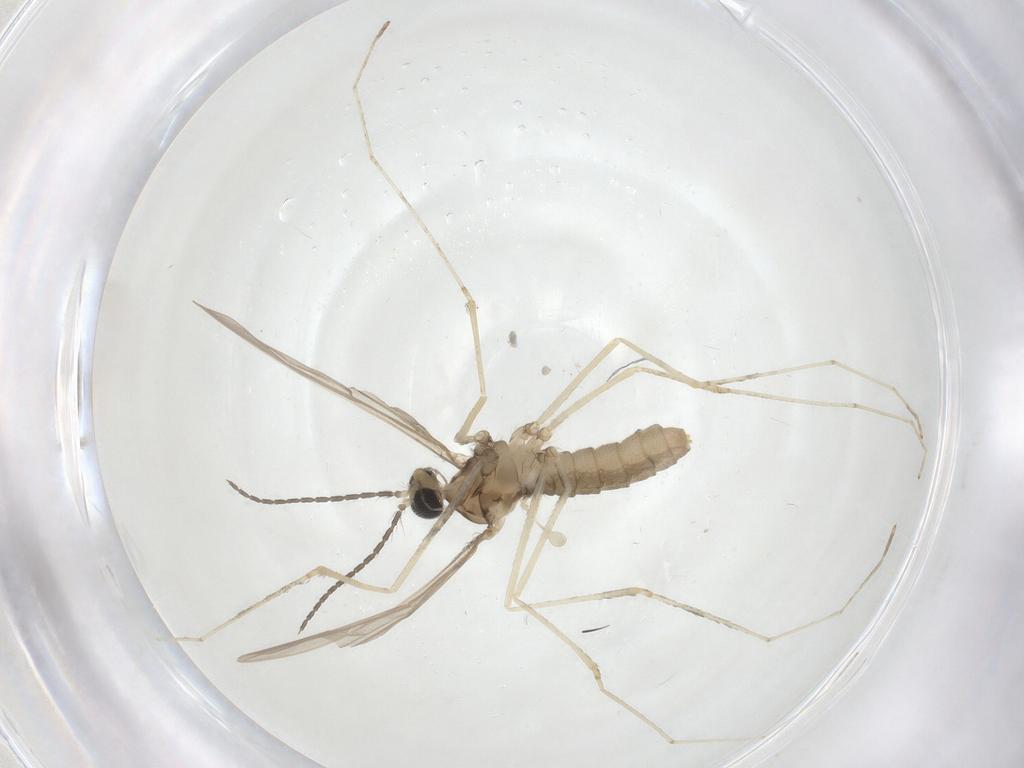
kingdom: Animalia
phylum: Arthropoda
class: Insecta
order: Diptera
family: Cecidomyiidae
